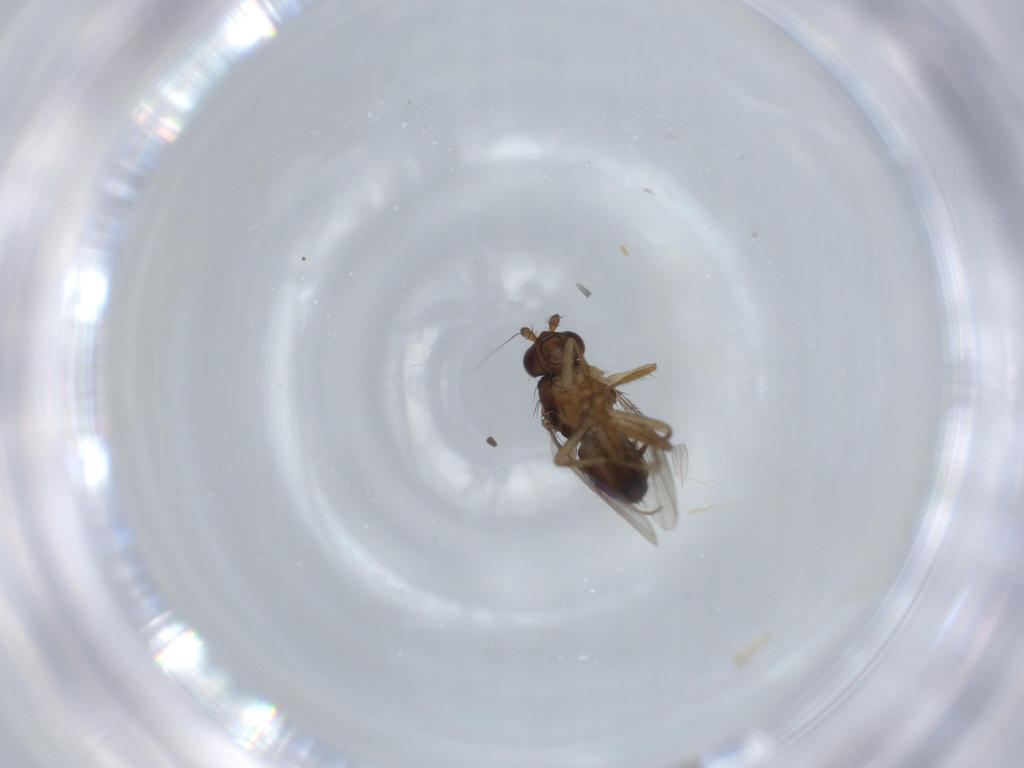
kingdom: Animalia
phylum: Arthropoda
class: Insecta
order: Diptera
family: Sphaeroceridae
